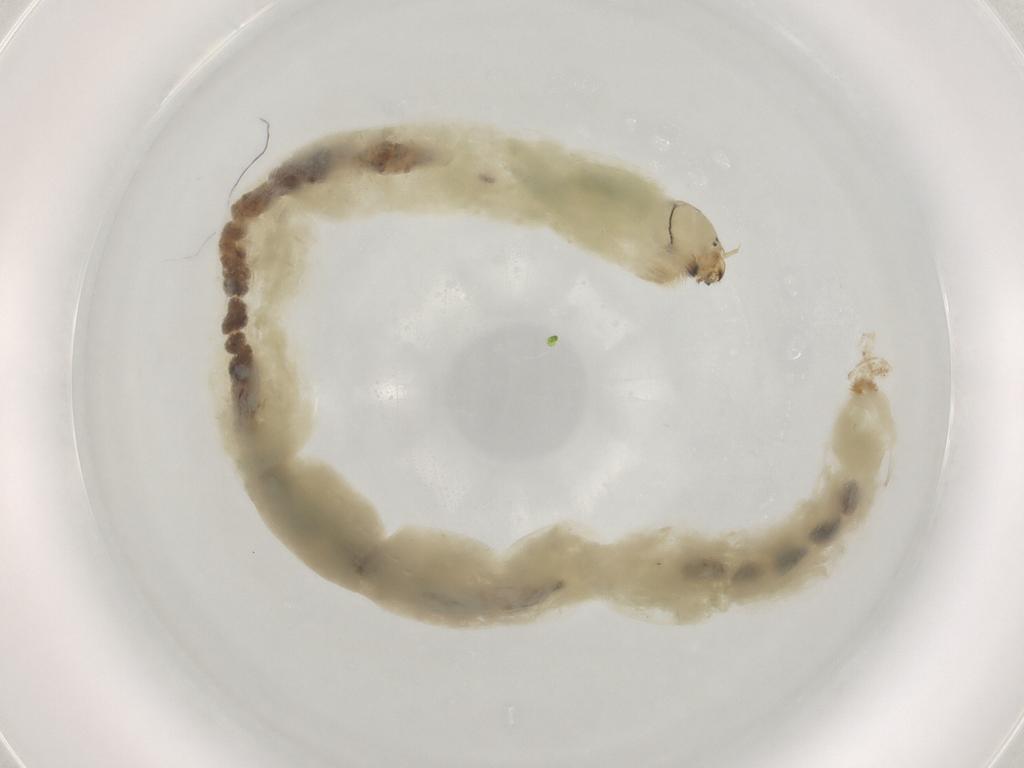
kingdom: Animalia
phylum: Arthropoda
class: Insecta
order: Diptera
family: Chironomidae
